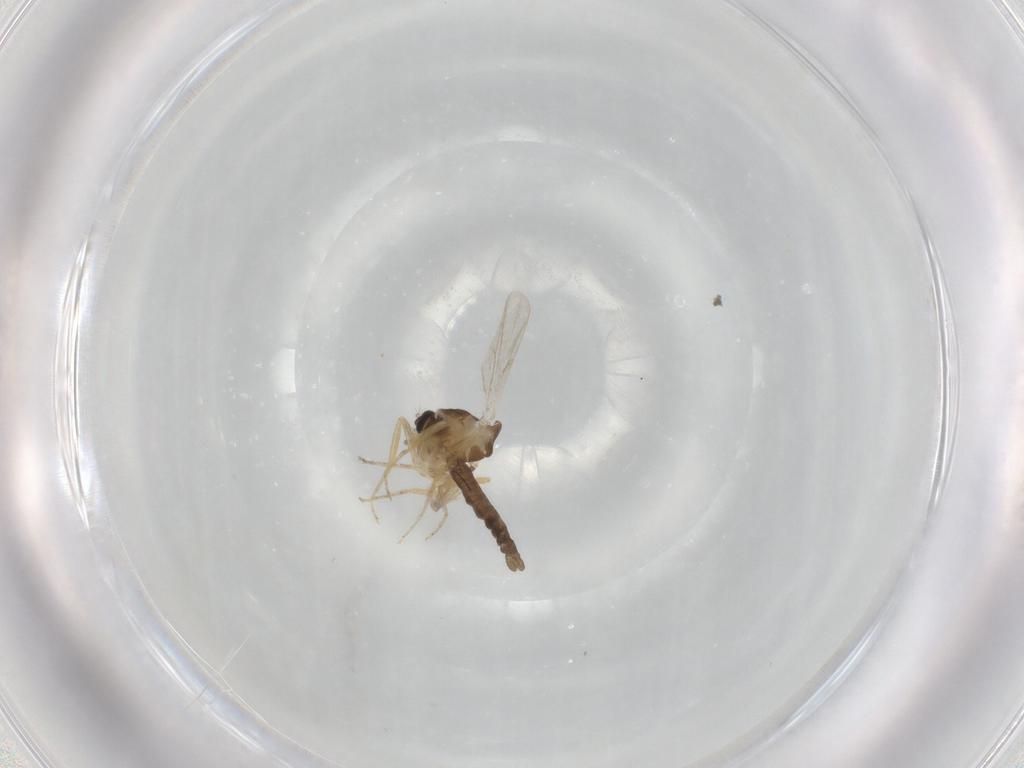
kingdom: Animalia
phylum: Arthropoda
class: Insecta
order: Diptera
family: Ceratopogonidae
